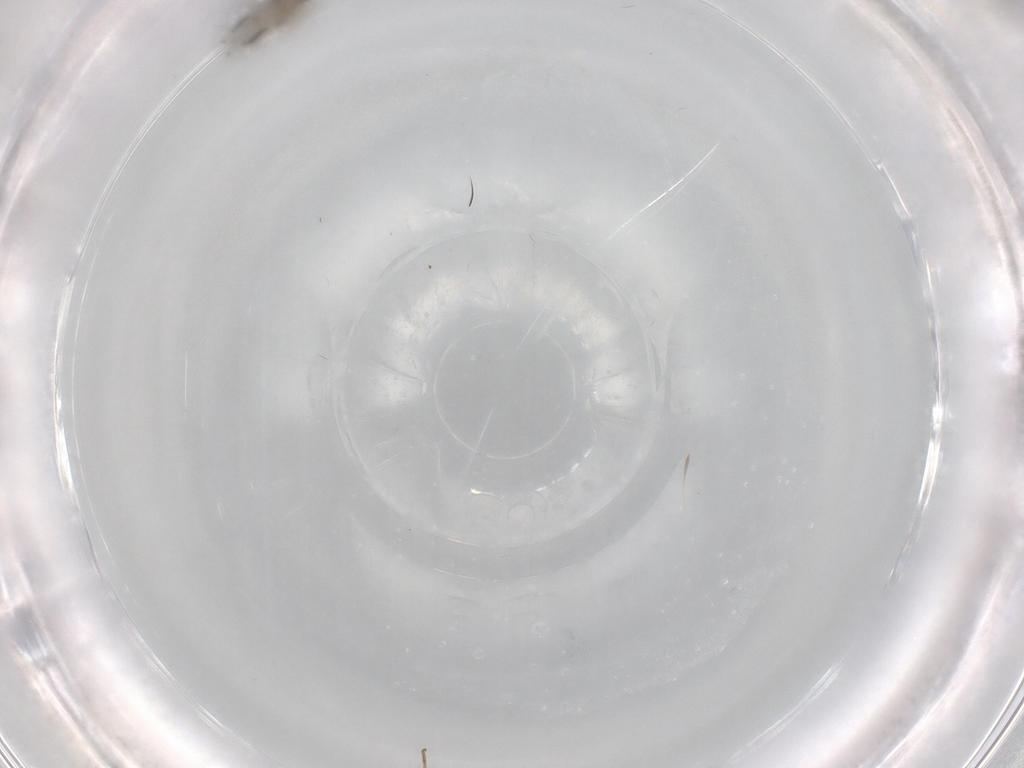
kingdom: Animalia
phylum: Arthropoda
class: Insecta
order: Lepidoptera
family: Heliozelidae
